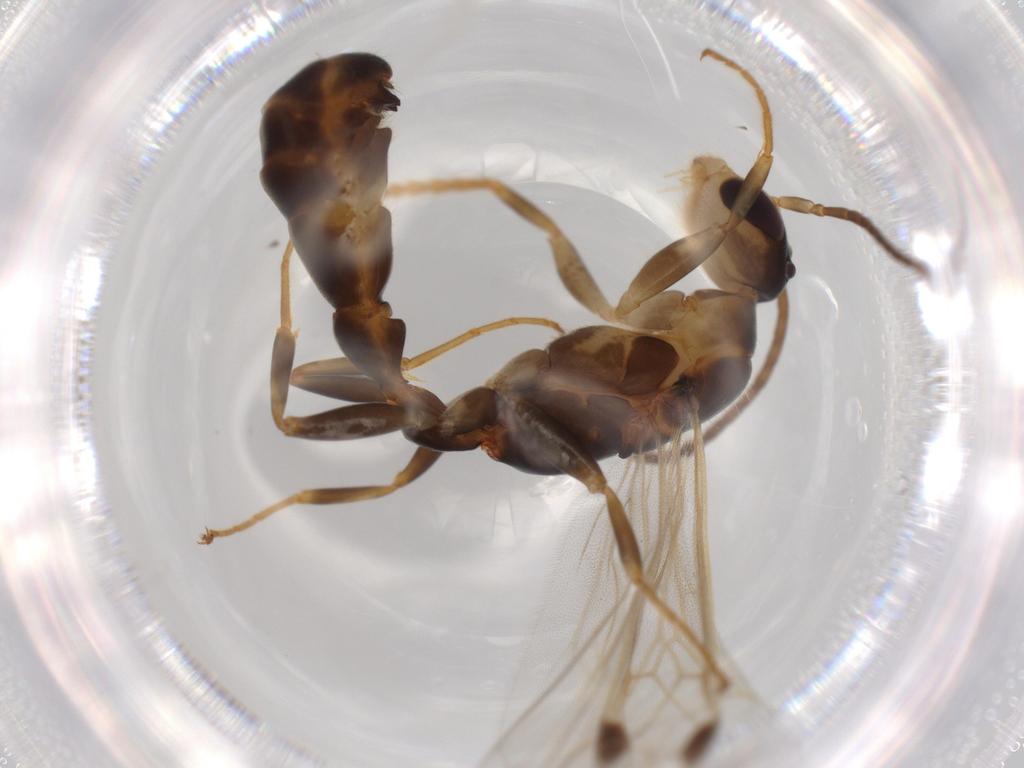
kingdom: Animalia
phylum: Arthropoda
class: Insecta
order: Hymenoptera
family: Formicidae
